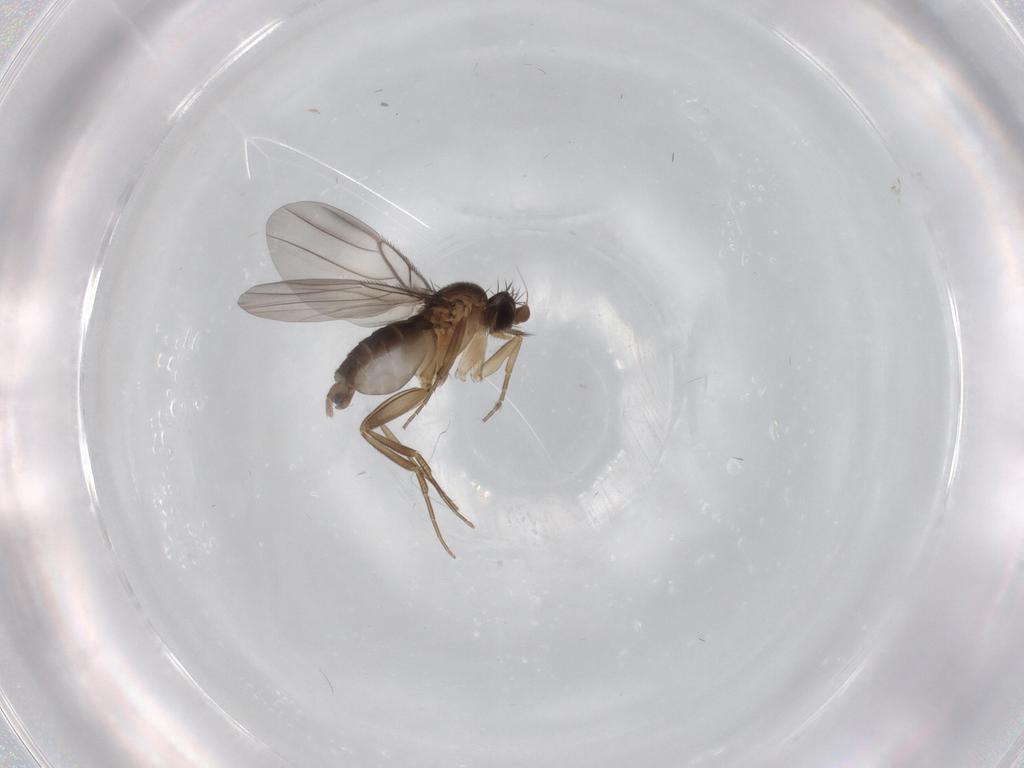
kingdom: Animalia
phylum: Arthropoda
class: Insecta
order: Diptera
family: Phoridae
